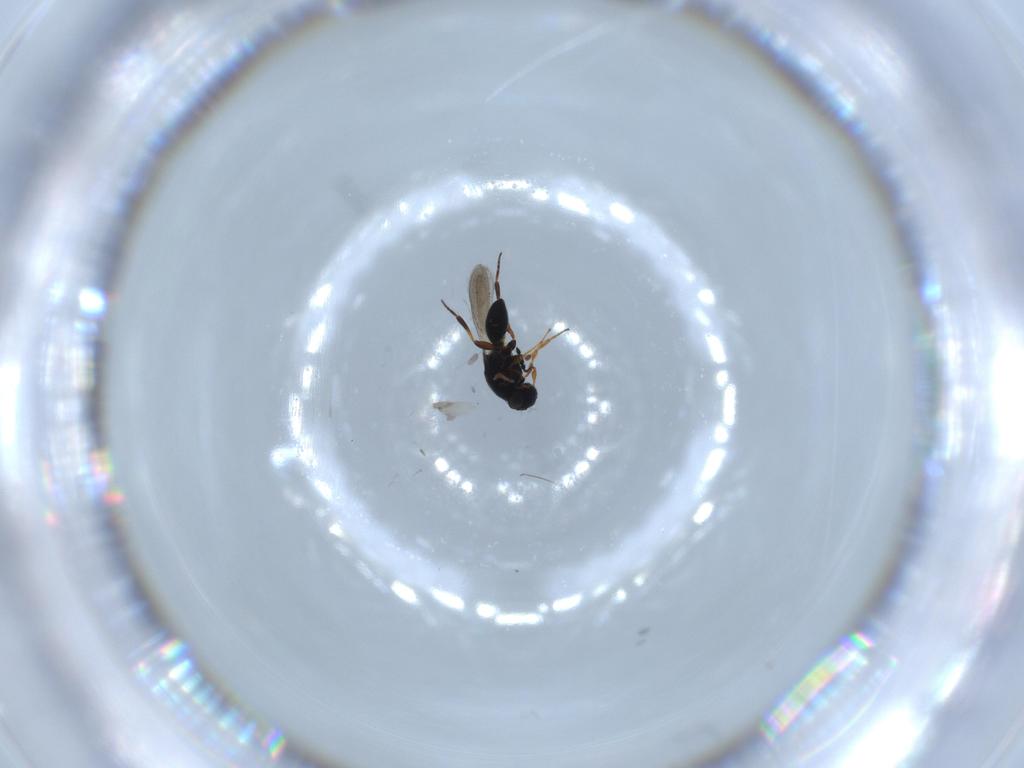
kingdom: Animalia
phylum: Arthropoda
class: Insecta
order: Hymenoptera
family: Platygastridae
